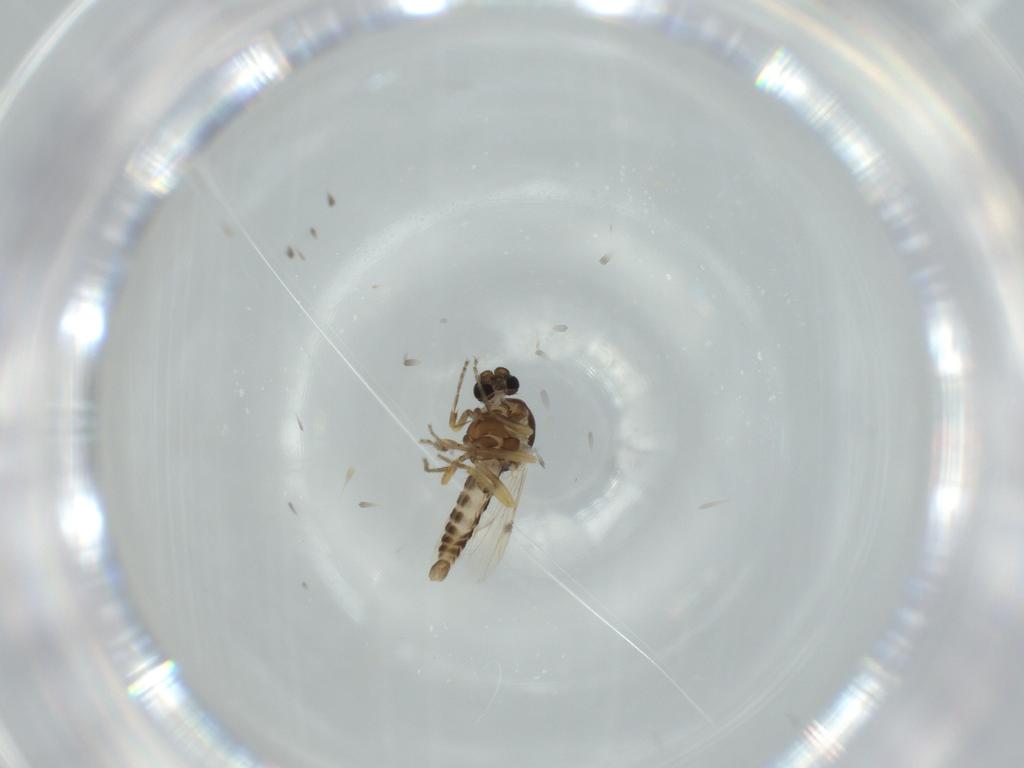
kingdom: Animalia
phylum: Arthropoda
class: Insecta
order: Diptera
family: Ceratopogonidae
